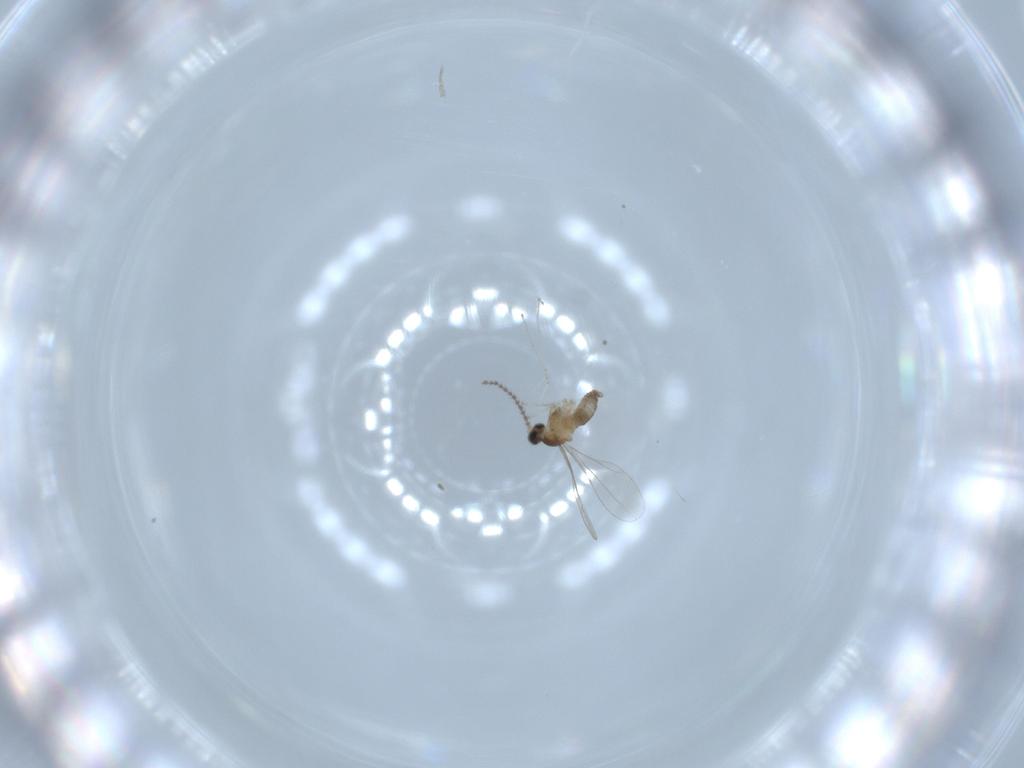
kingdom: Animalia
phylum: Arthropoda
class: Insecta
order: Diptera
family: Cecidomyiidae
